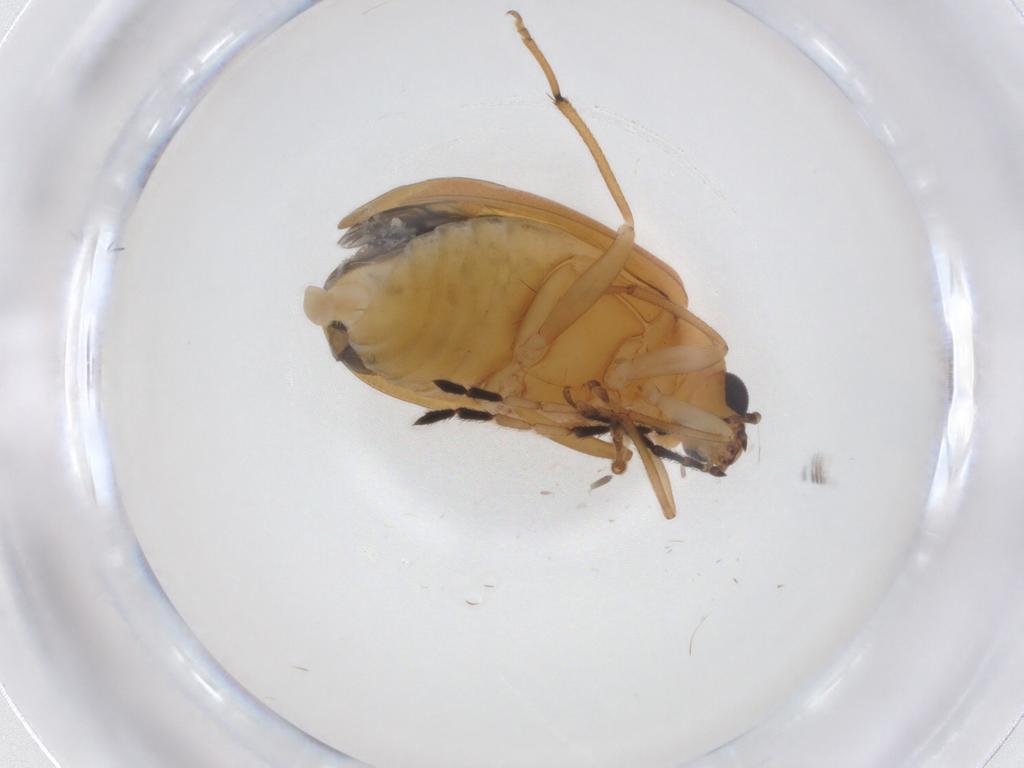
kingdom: Animalia
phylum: Arthropoda
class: Insecta
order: Coleoptera
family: Chrysomelidae
